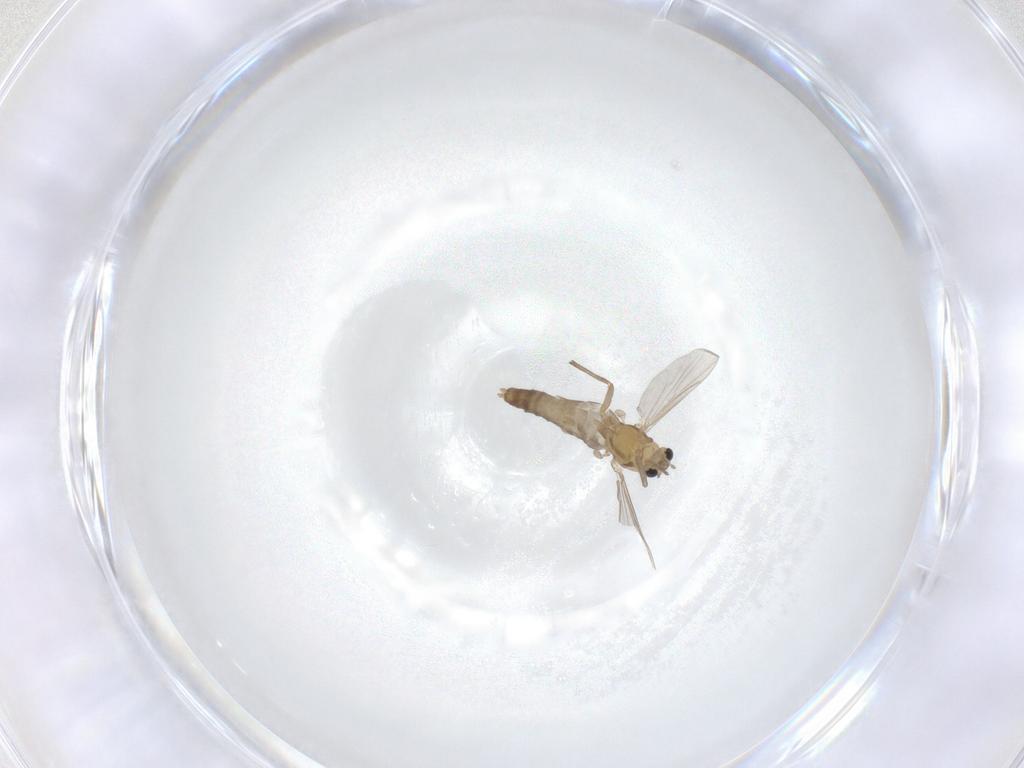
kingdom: Animalia
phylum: Arthropoda
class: Insecta
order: Diptera
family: Chironomidae
